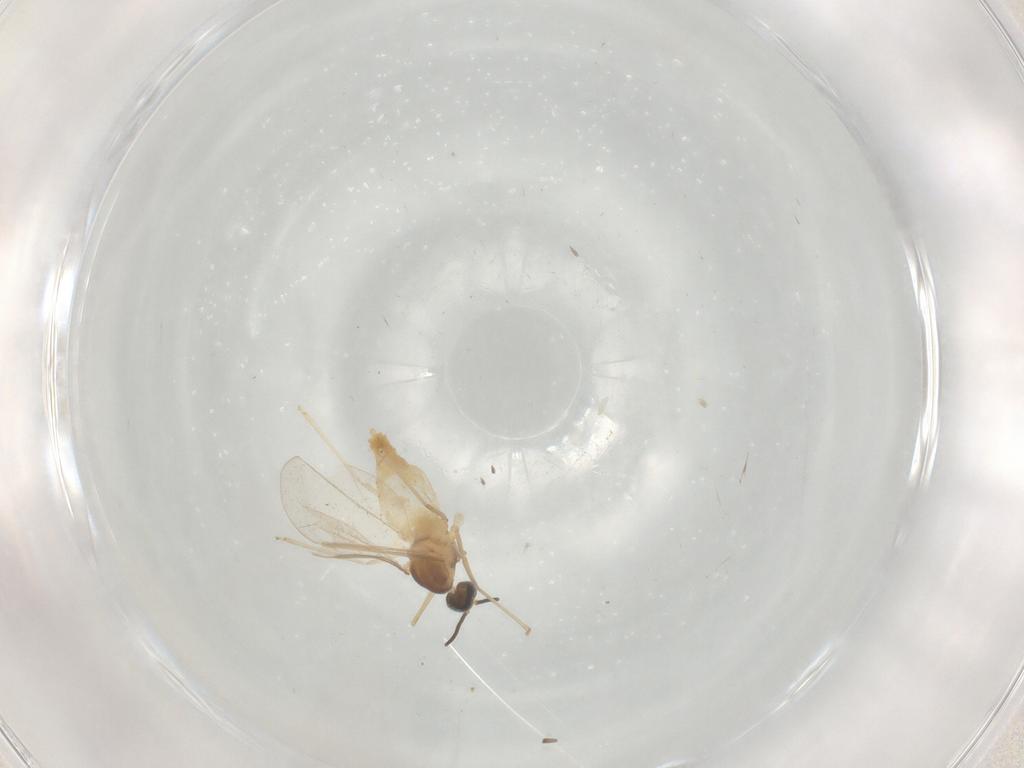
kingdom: Animalia
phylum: Arthropoda
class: Insecta
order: Diptera
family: Cecidomyiidae
